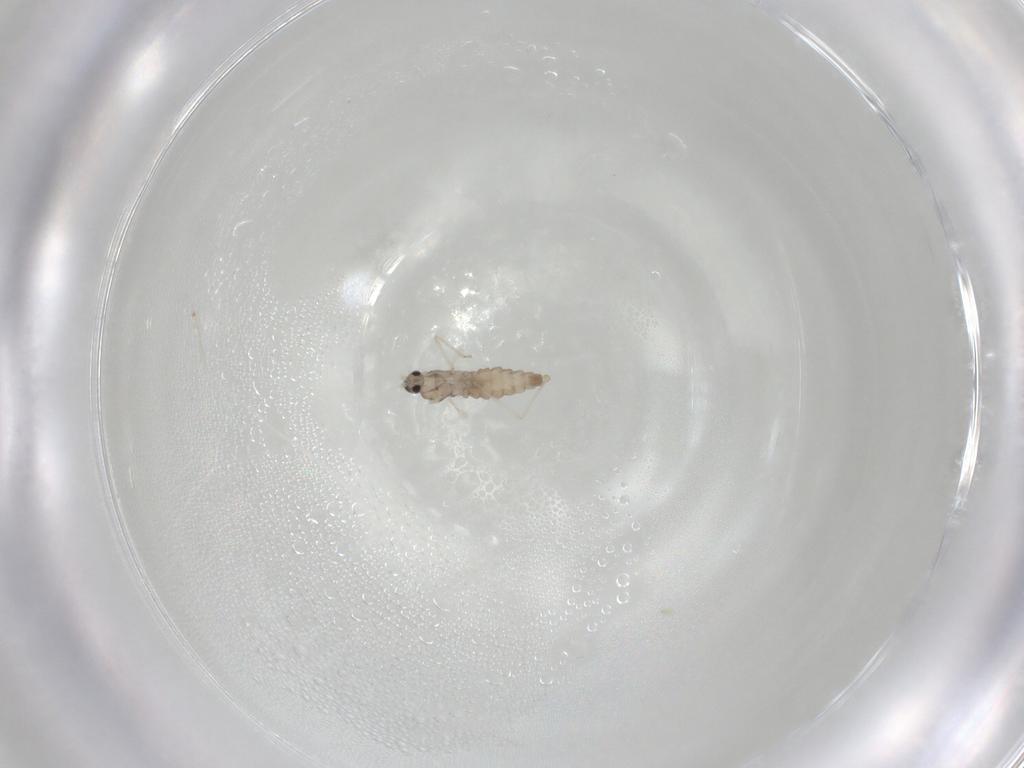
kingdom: Animalia
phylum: Arthropoda
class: Insecta
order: Diptera
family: Cecidomyiidae
